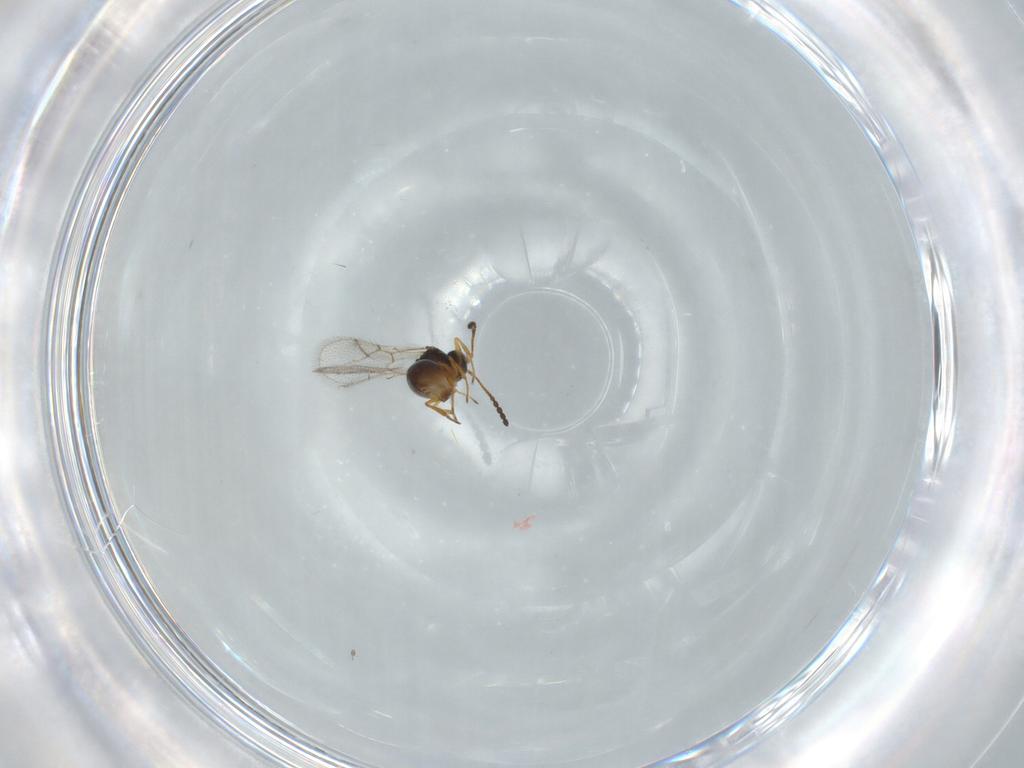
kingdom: Animalia
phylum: Arthropoda
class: Insecta
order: Hymenoptera
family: Figitidae
